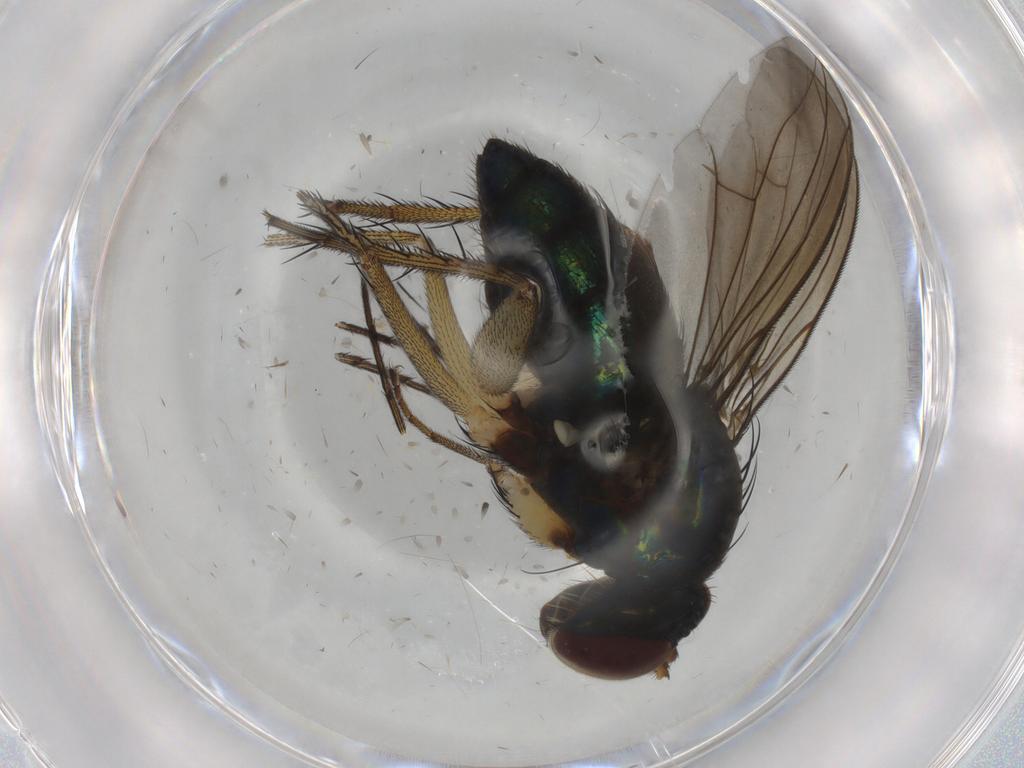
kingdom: Animalia
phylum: Arthropoda
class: Insecta
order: Diptera
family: Dolichopodidae
